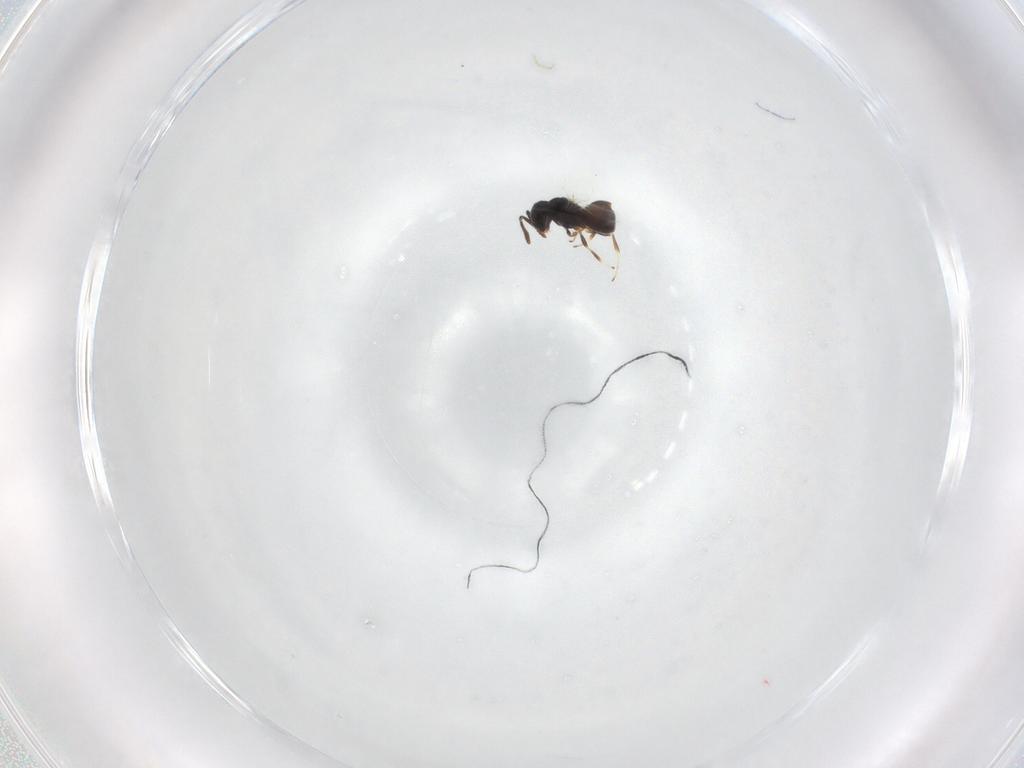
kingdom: Animalia
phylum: Arthropoda
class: Insecta
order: Hymenoptera
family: Scelionidae
